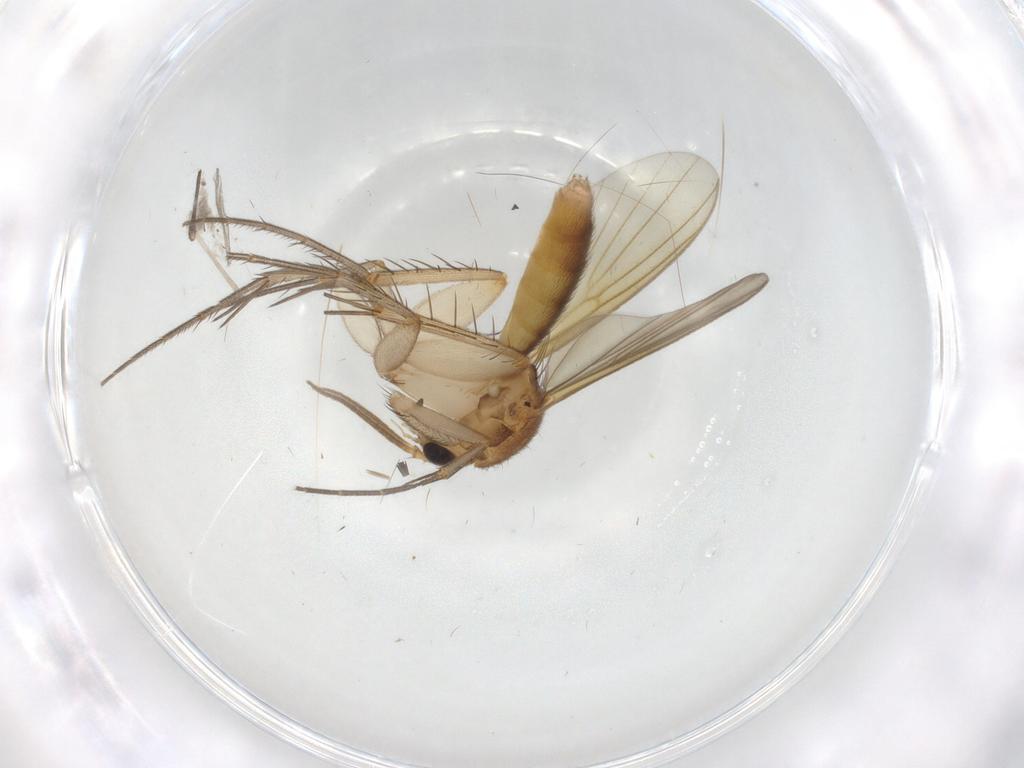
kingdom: Animalia
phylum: Arthropoda
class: Insecta
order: Diptera
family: Mycetophilidae
